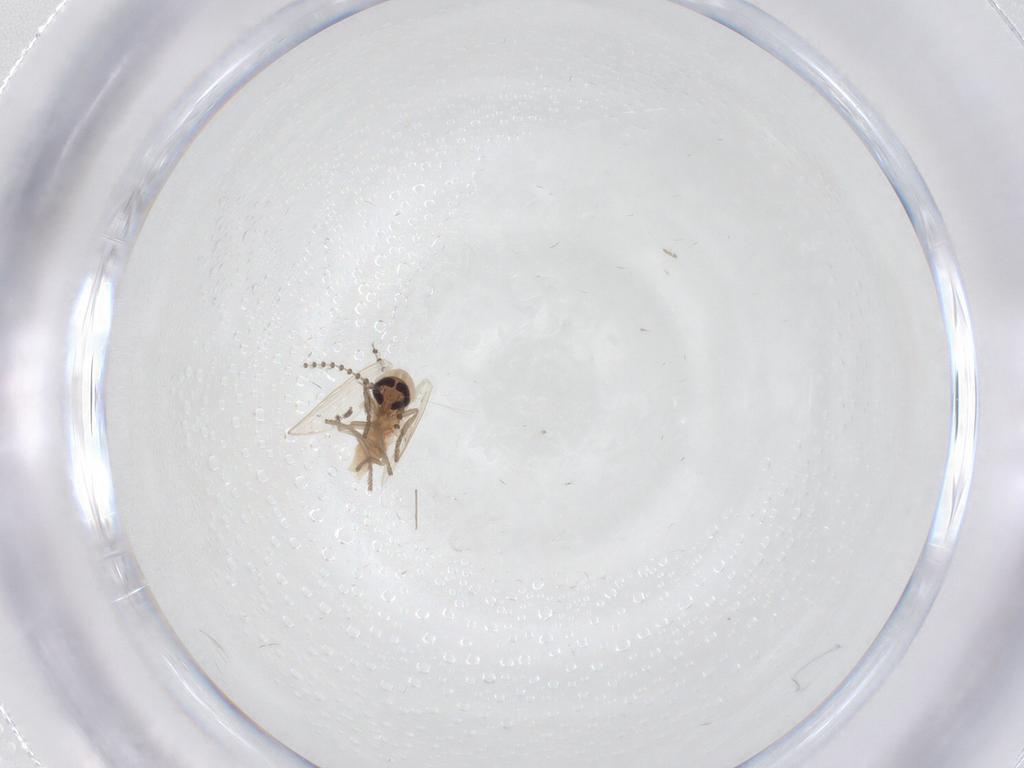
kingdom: Animalia
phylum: Arthropoda
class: Insecta
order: Diptera
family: Psychodidae
